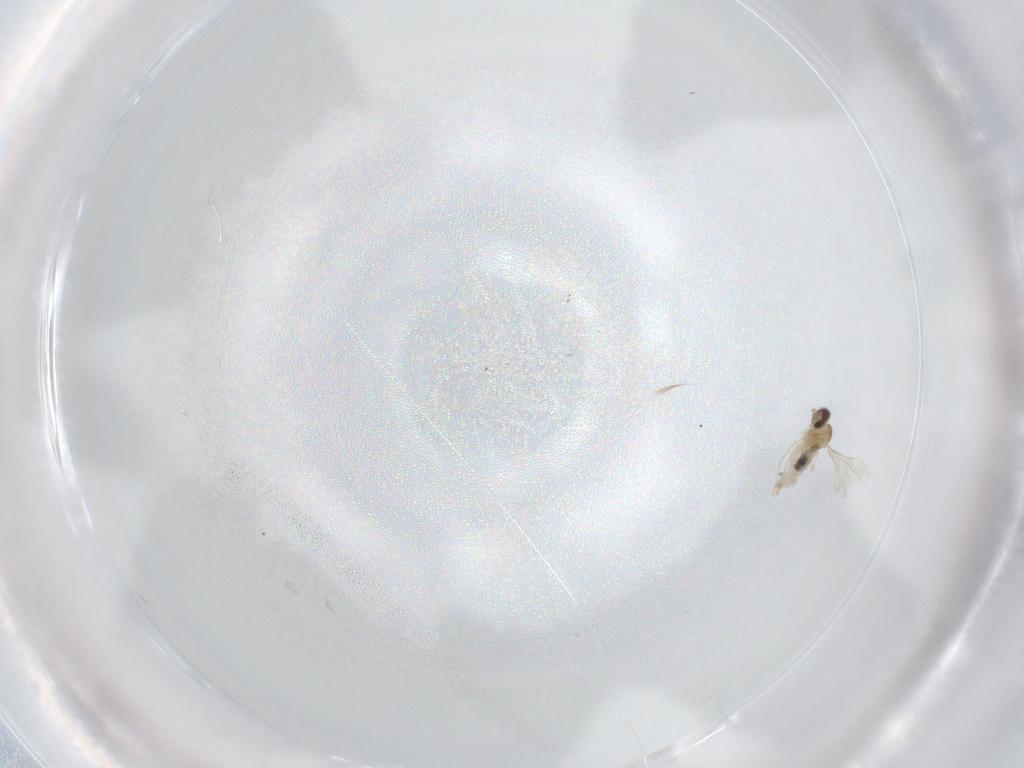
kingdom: Animalia
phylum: Arthropoda
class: Insecta
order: Diptera
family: Cecidomyiidae
